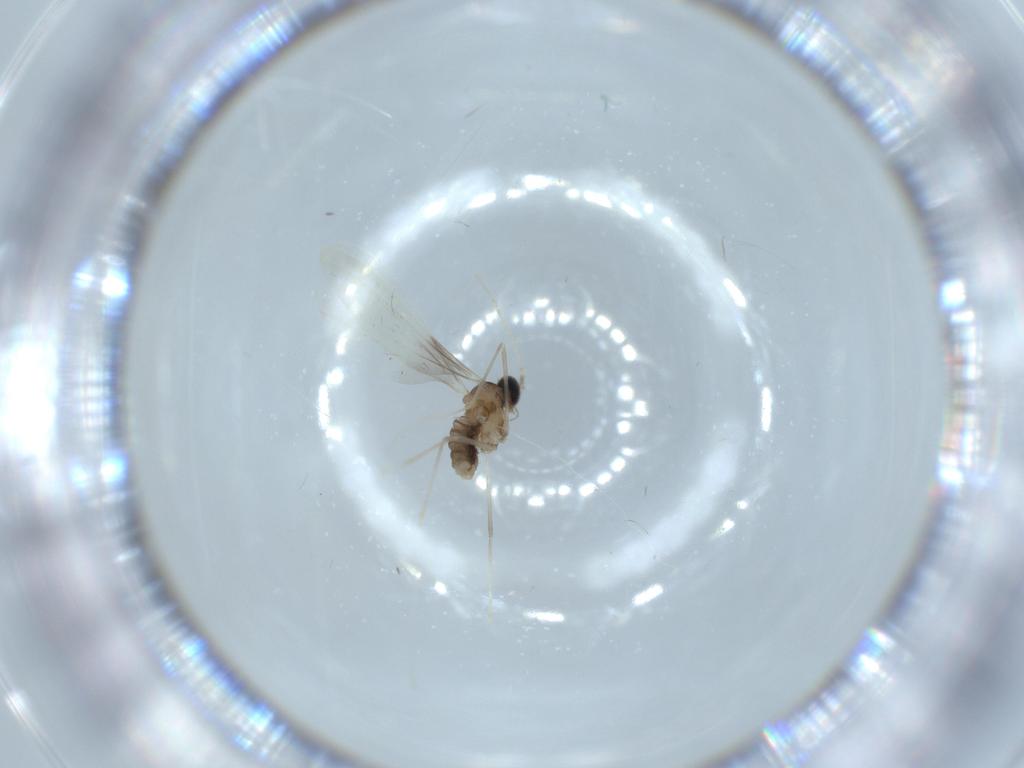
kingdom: Animalia
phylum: Arthropoda
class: Insecta
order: Diptera
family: Cecidomyiidae
